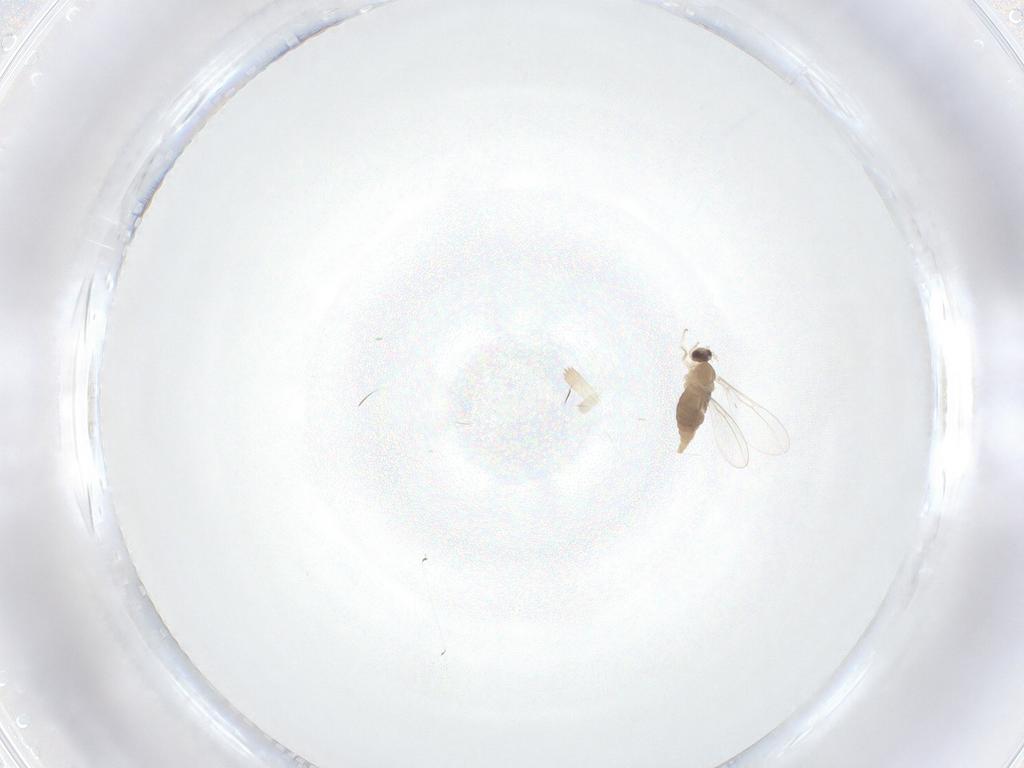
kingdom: Animalia
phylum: Arthropoda
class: Insecta
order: Diptera
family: Cecidomyiidae
